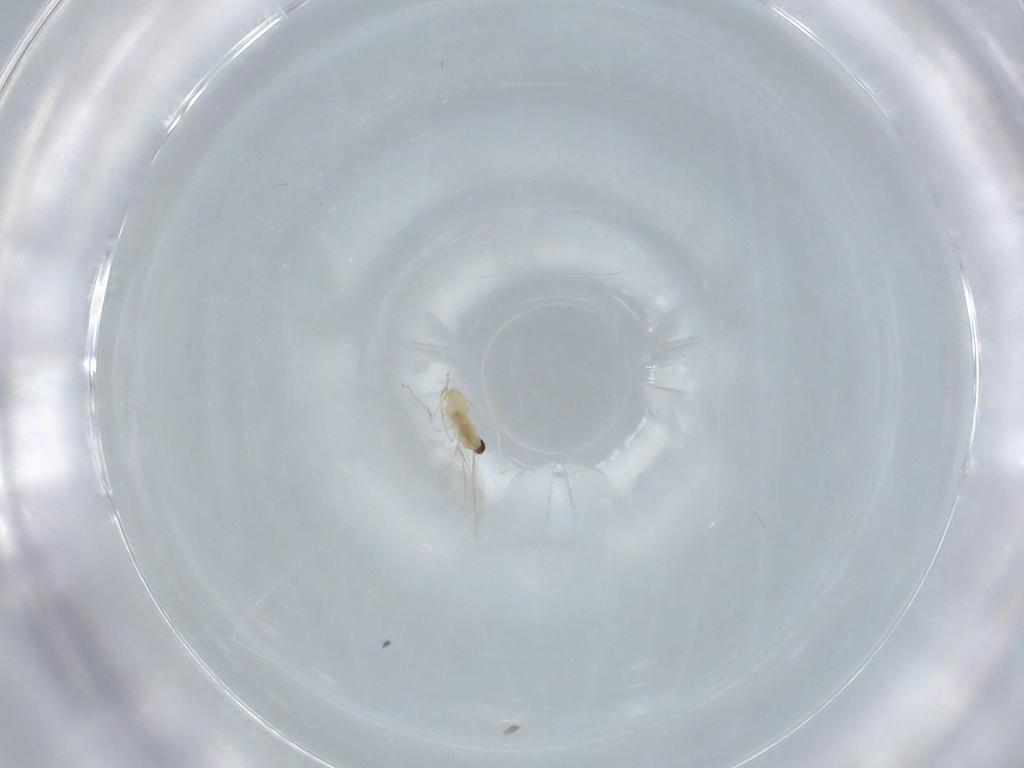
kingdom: Animalia
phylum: Arthropoda
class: Insecta
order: Diptera
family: Cecidomyiidae
